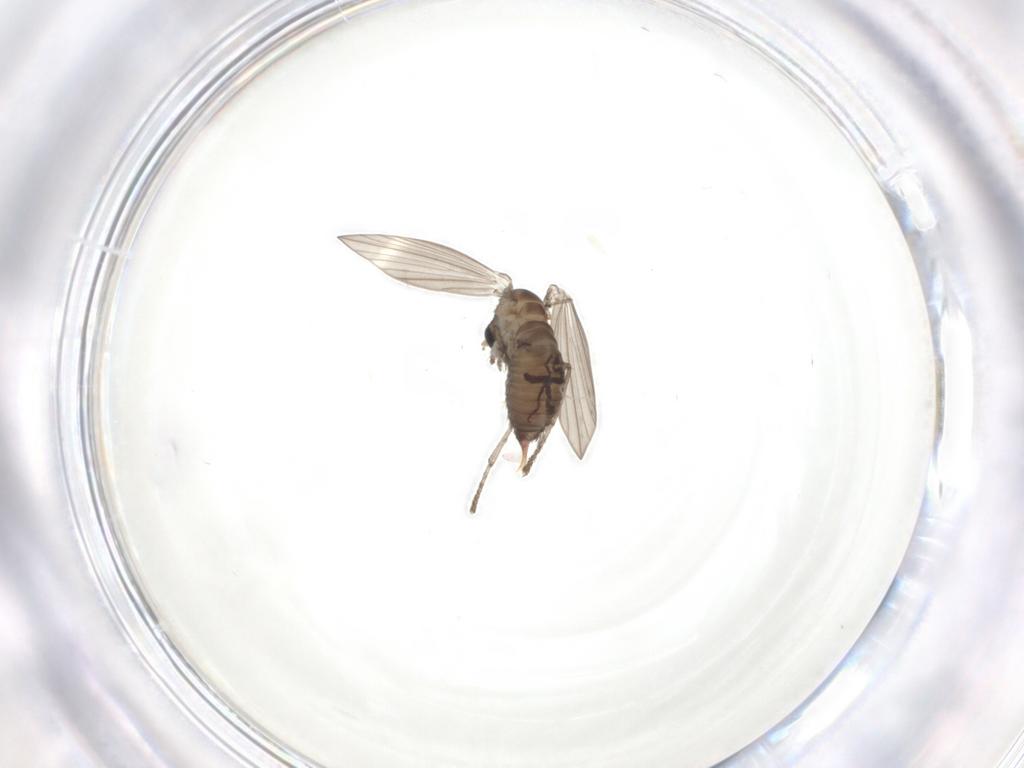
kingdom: Animalia
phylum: Arthropoda
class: Insecta
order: Diptera
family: Psychodidae
